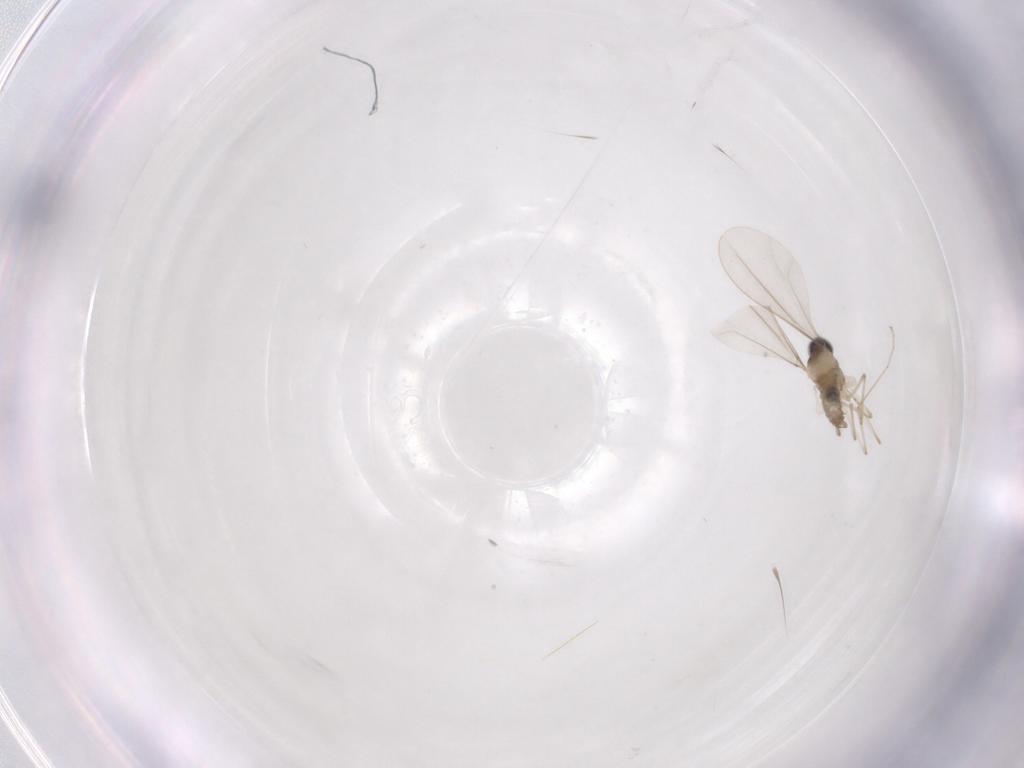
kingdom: Animalia
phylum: Arthropoda
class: Insecta
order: Diptera
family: Cecidomyiidae
